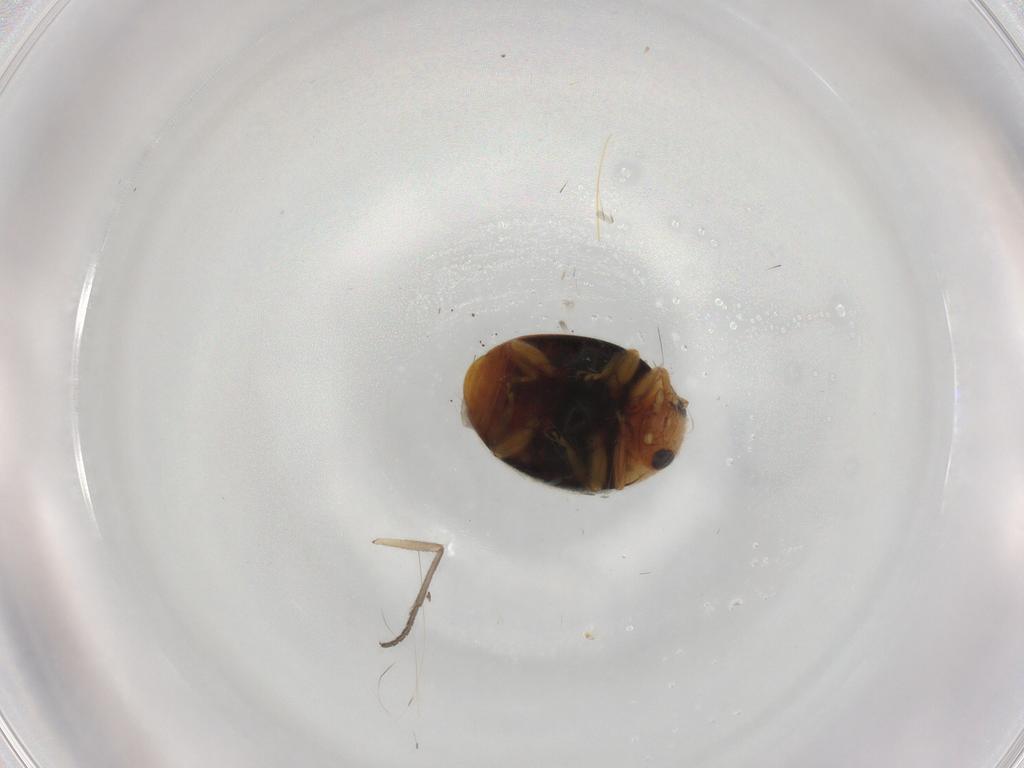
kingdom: Animalia
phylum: Arthropoda
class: Insecta
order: Coleoptera
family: Coccinellidae
